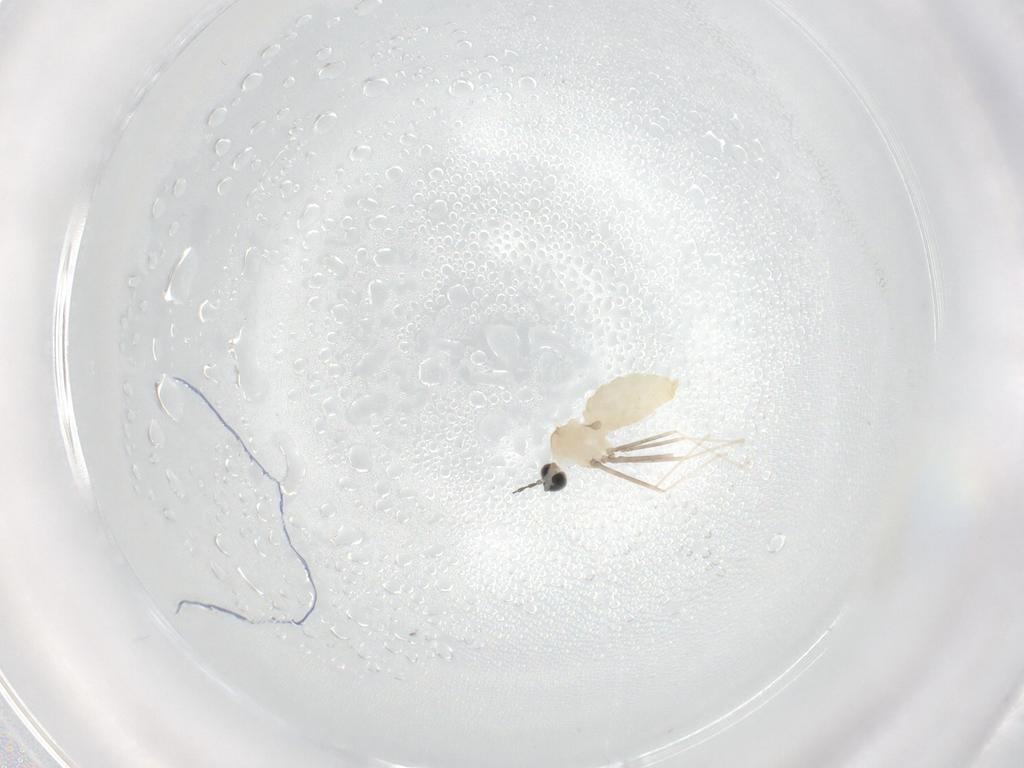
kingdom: Animalia
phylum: Arthropoda
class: Insecta
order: Diptera
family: Cecidomyiidae
